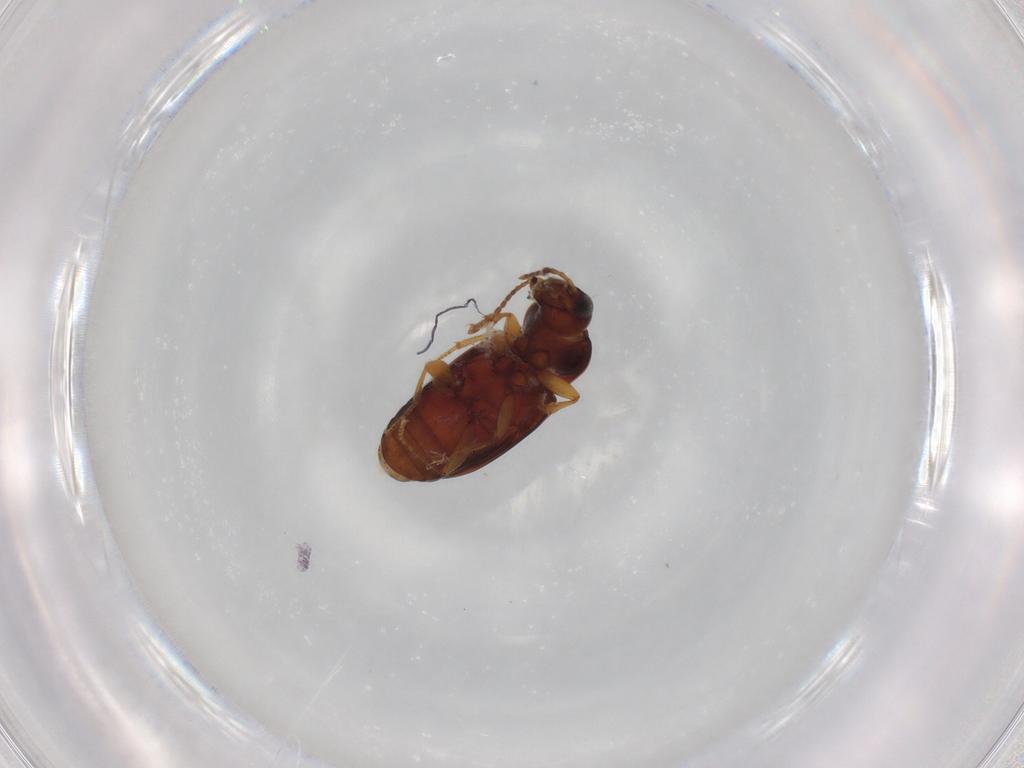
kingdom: Animalia
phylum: Arthropoda
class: Insecta
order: Coleoptera
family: Carabidae
